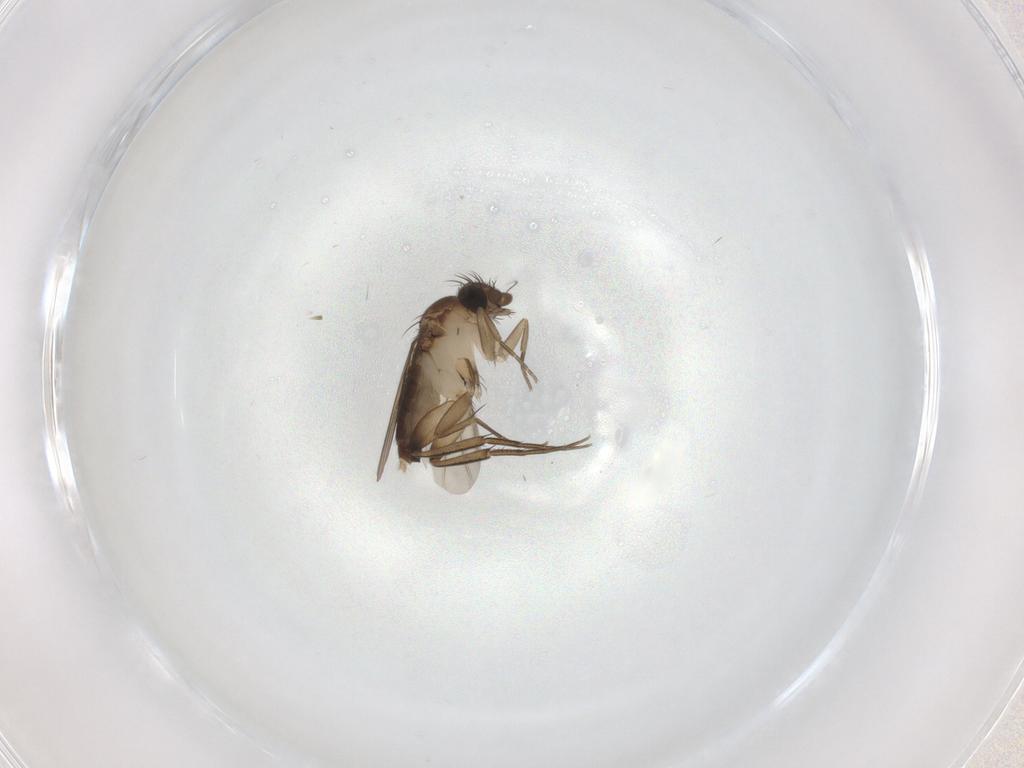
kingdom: Animalia
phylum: Arthropoda
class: Insecta
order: Diptera
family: Phoridae
